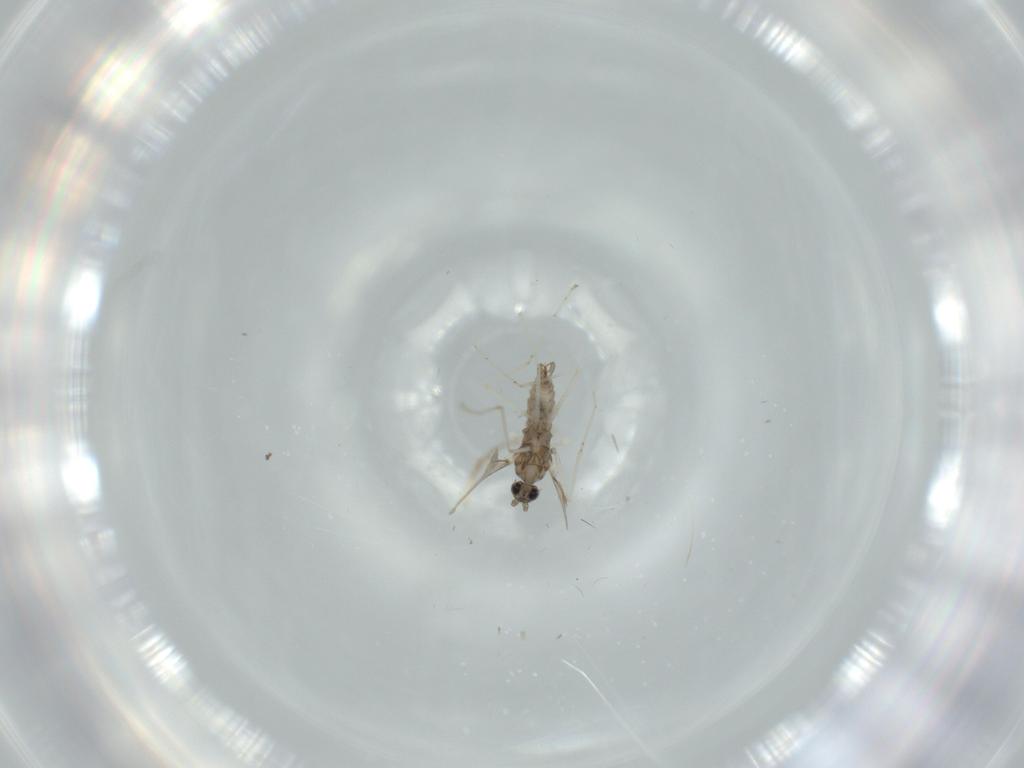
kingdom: Animalia
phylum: Arthropoda
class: Insecta
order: Diptera
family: Cecidomyiidae
